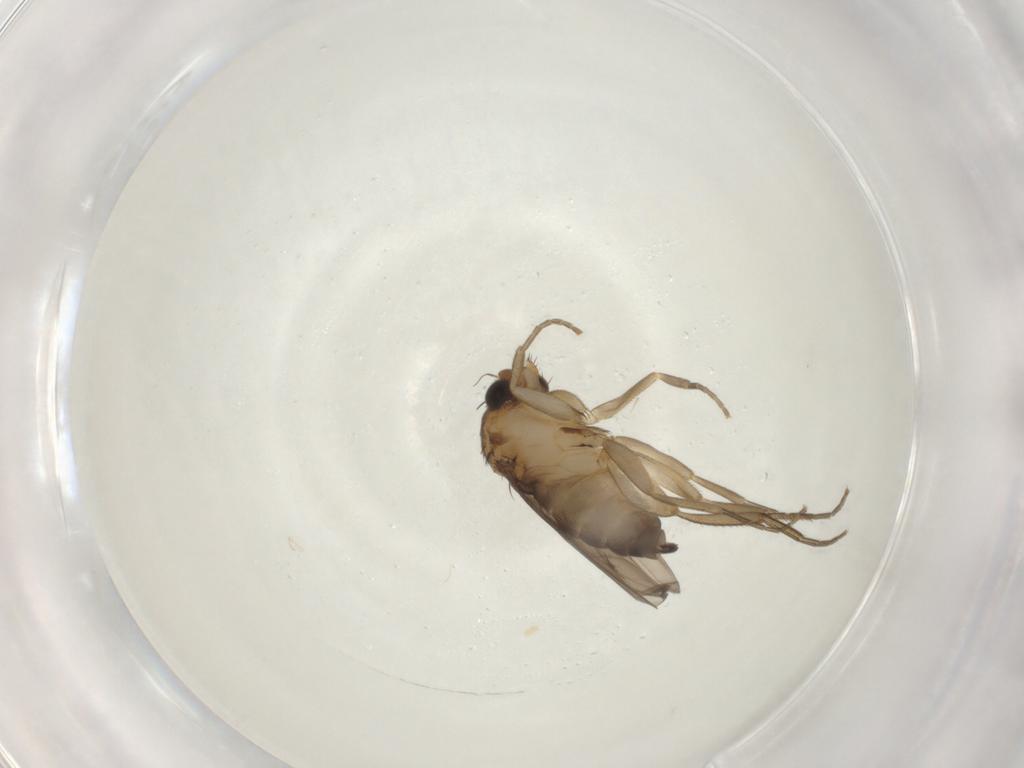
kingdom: Animalia
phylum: Arthropoda
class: Insecta
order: Diptera
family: Phoridae
